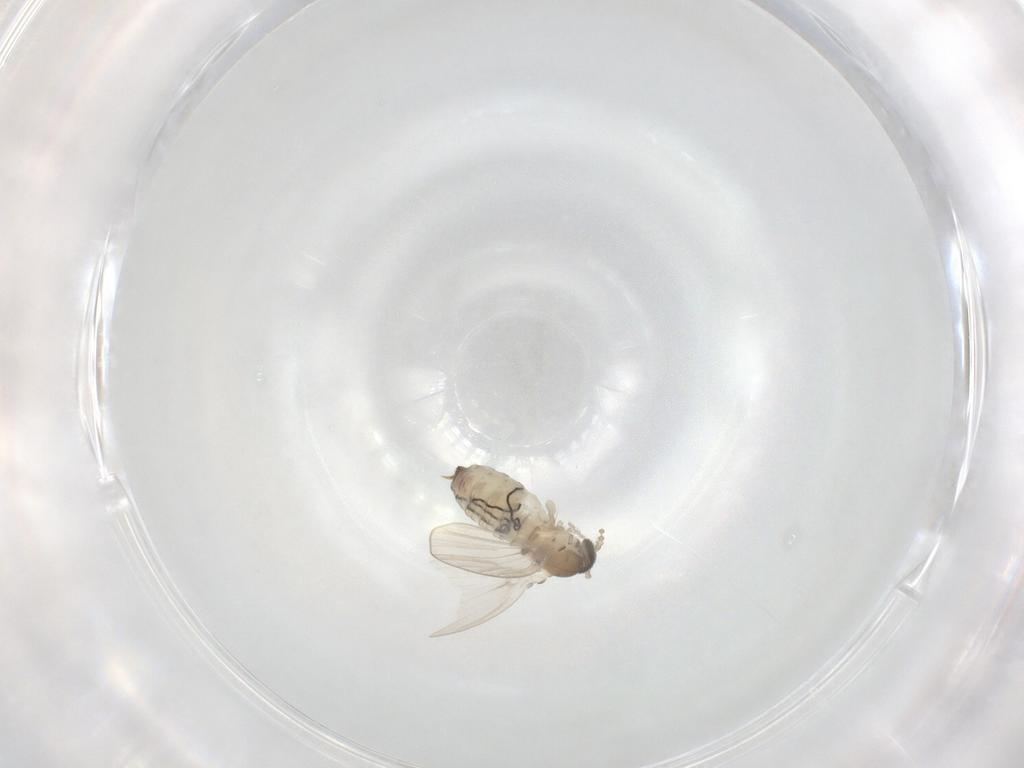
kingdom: Animalia
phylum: Arthropoda
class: Insecta
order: Diptera
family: Psychodidae
